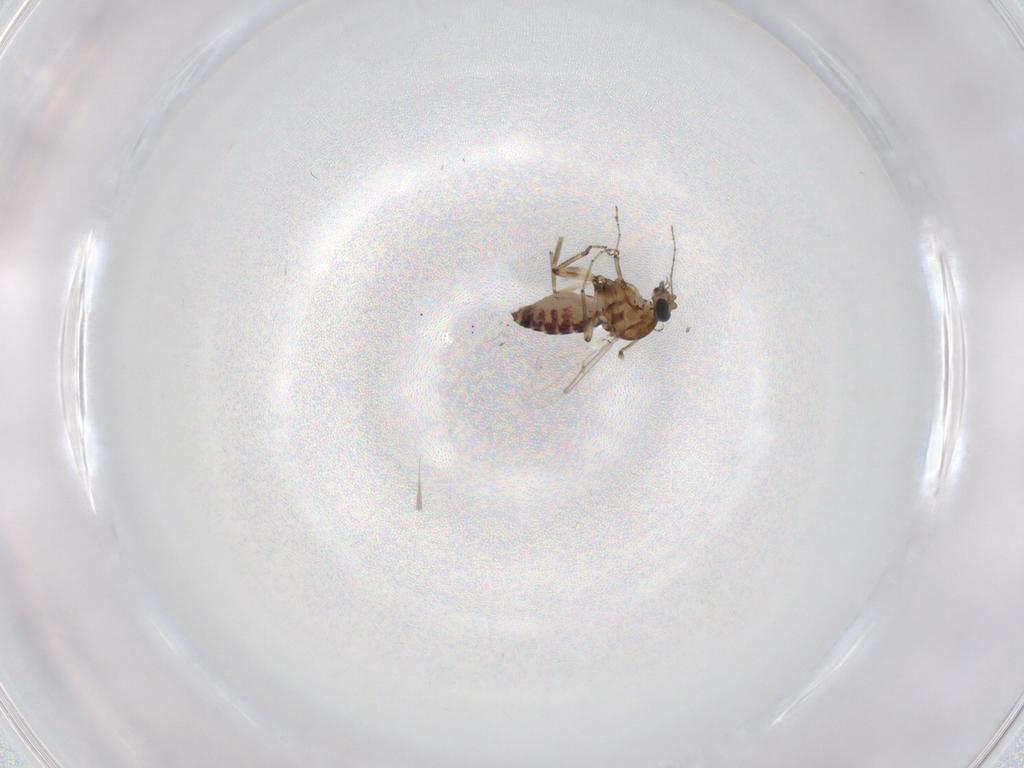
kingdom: Animalia
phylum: Arthropoda
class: Insecta
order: Diptera
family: Ceratopogonidae
